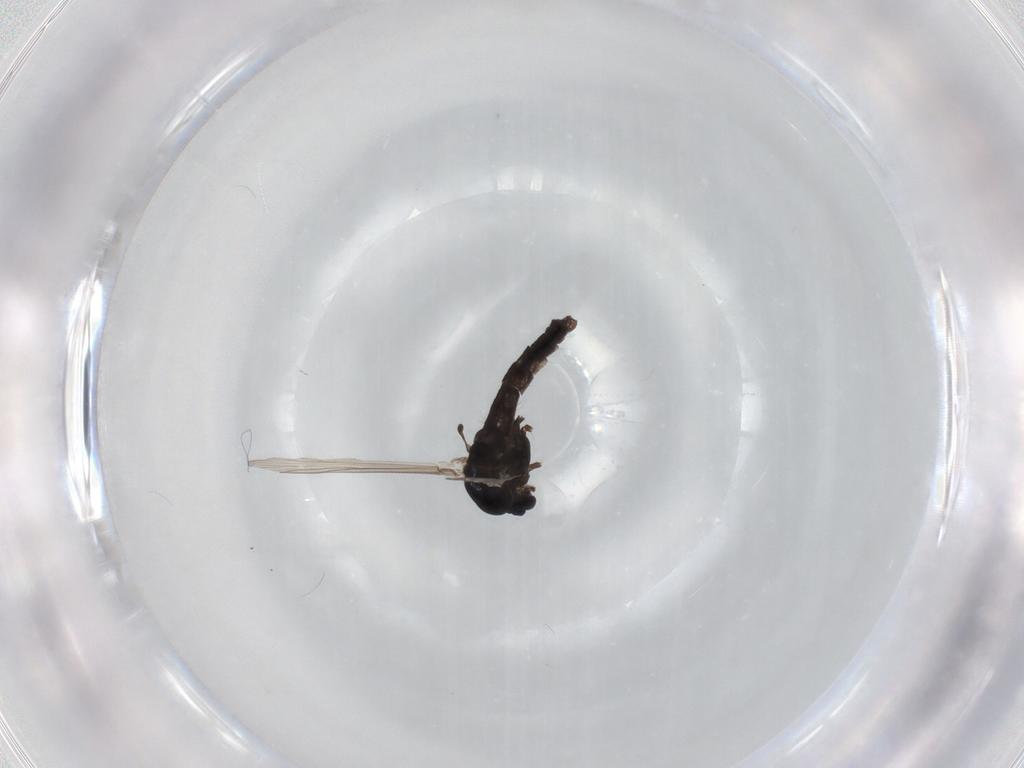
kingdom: Animalia
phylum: Arthropoda
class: Insecta
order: Diptera
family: Chironomidae
